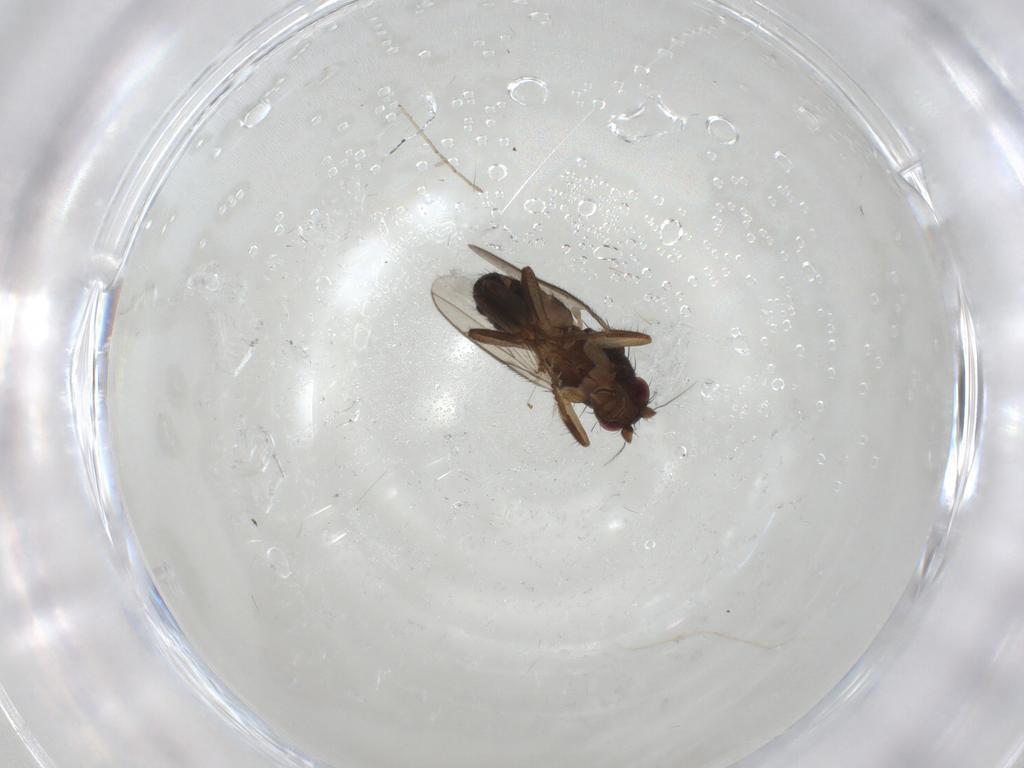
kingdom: Animalia
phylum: Arthropoda
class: Insecta
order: Diptera
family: Sphaeroceridae
